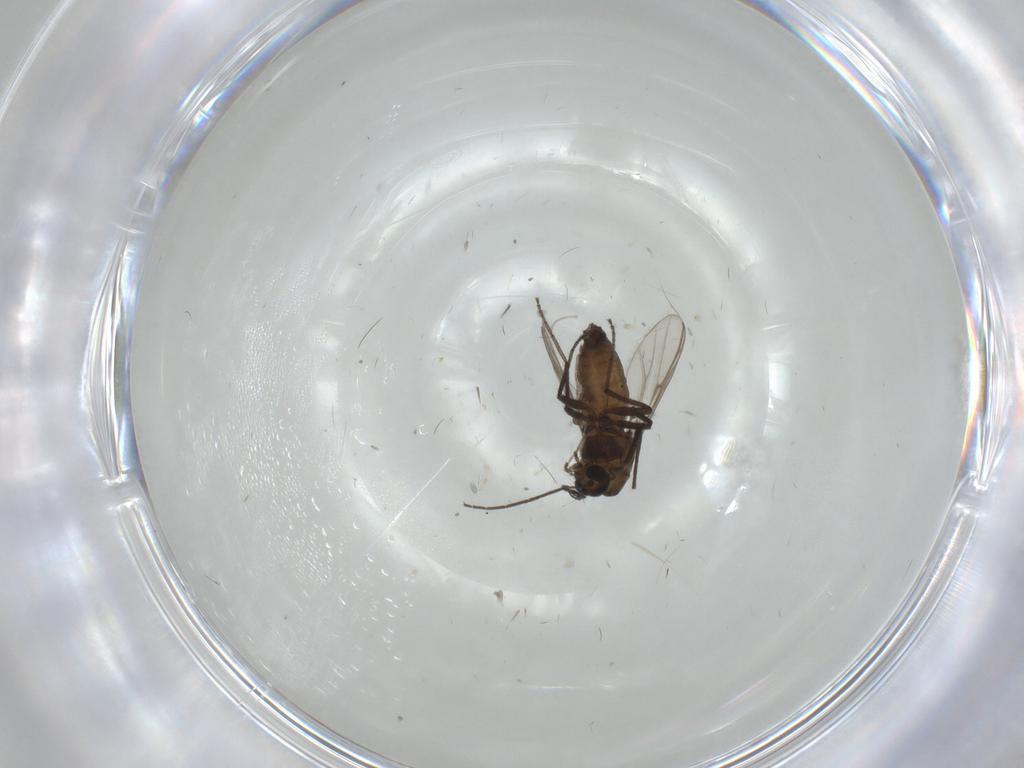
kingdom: Animalia
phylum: Arthropoda
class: Insecta
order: Diptera
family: Chironomidae
